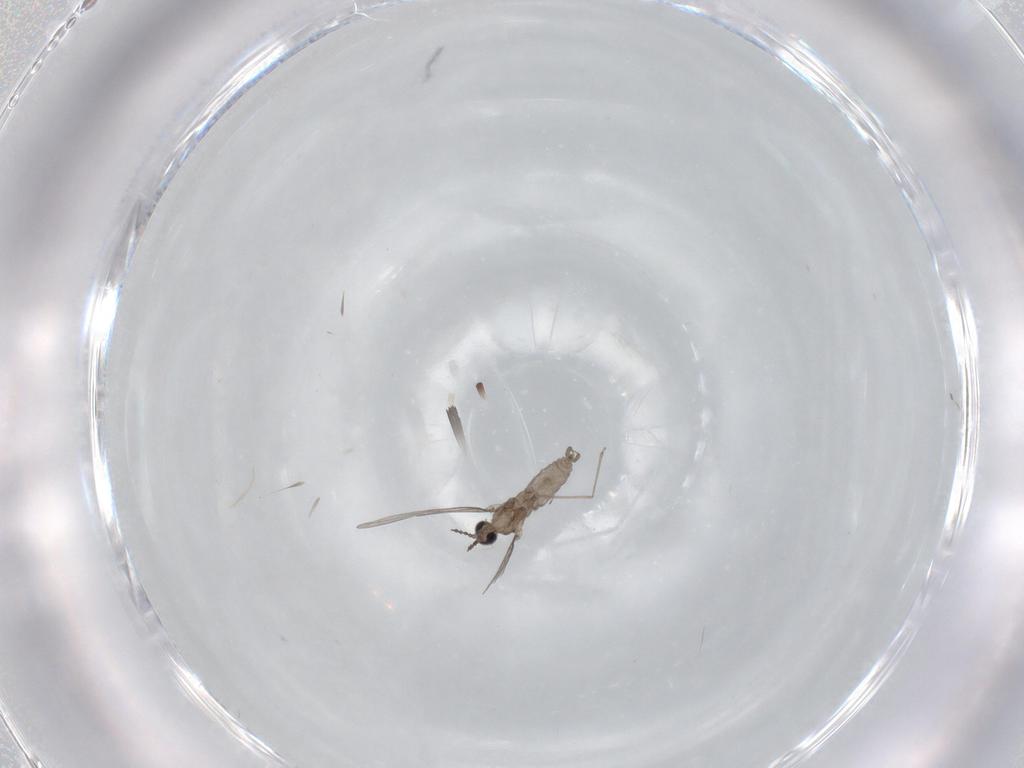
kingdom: Animalia
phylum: Arthropoda
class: Insecta
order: Diptera
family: Cecidomyiidae
